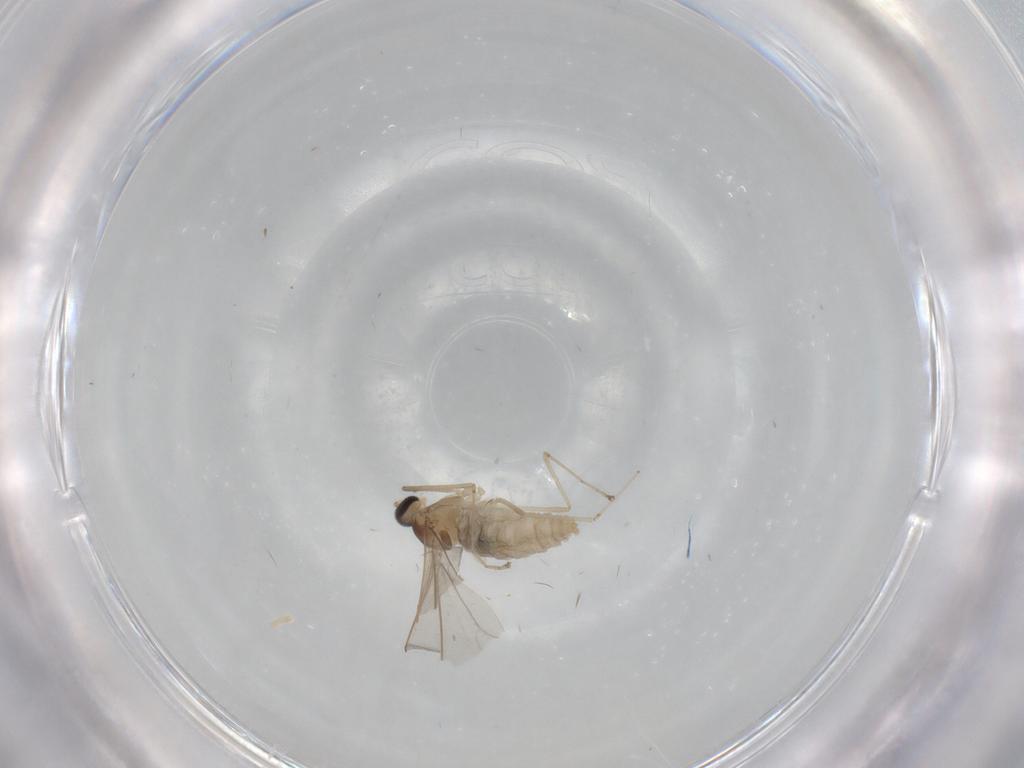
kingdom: Animalia
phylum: Arthropoda
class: Insecta
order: Diptera
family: Cecidomyiidae
